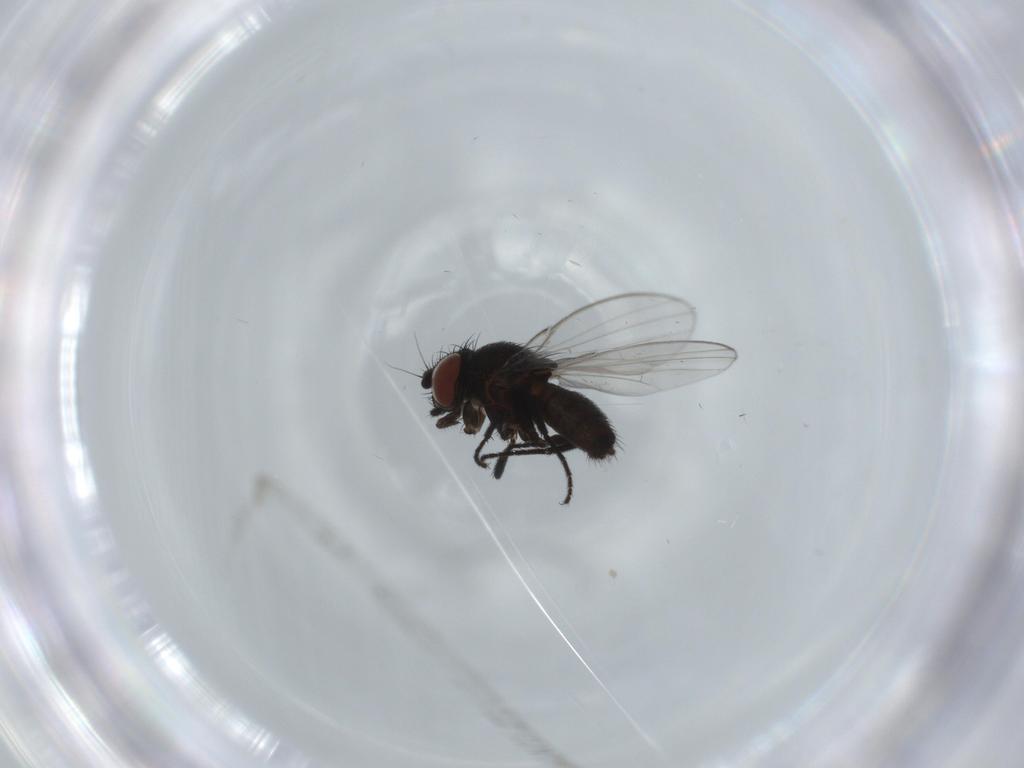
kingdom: Animalia
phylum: Arthropoda
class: Insecta
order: Diptera
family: Milichiidae
